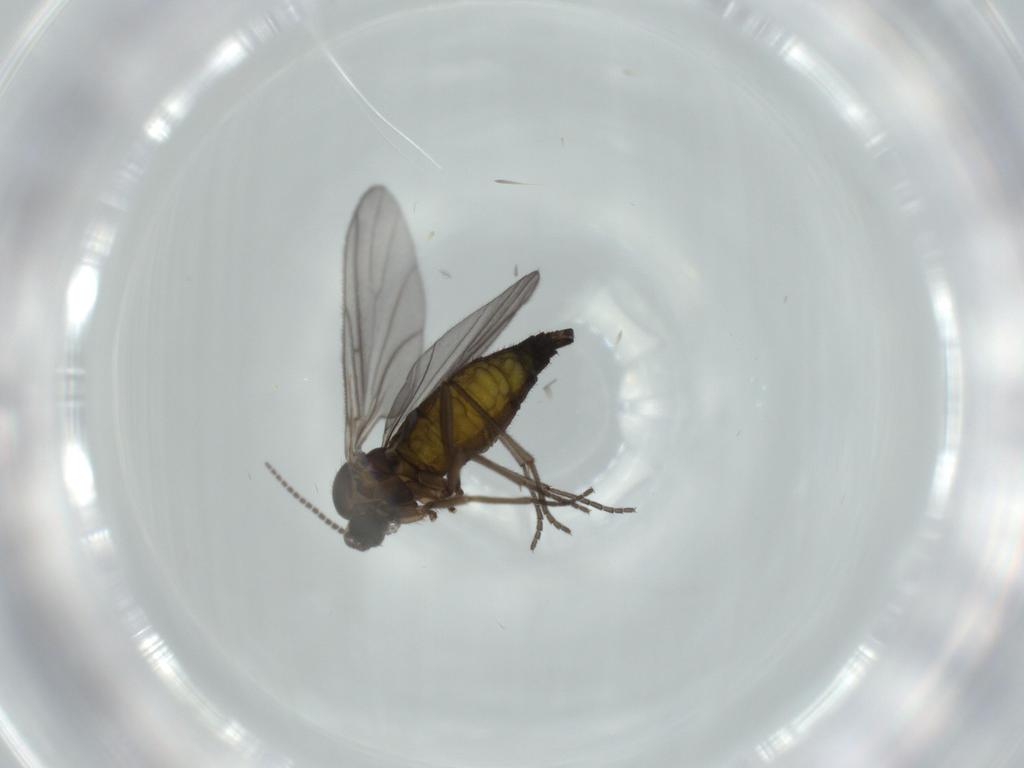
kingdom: Animalia
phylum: Arthropoda
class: Insecta
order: Diptera
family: Sciaridae
